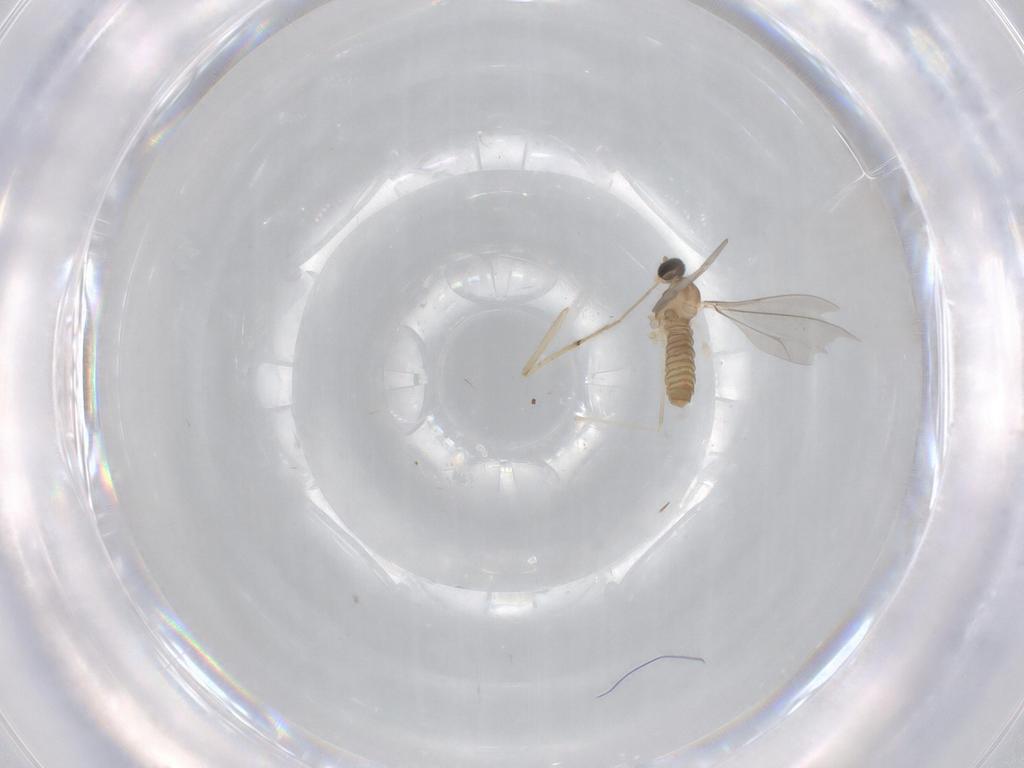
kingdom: Animalia
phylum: Arthropoda
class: Insecta
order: Diptera
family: Cecidomyiidae
